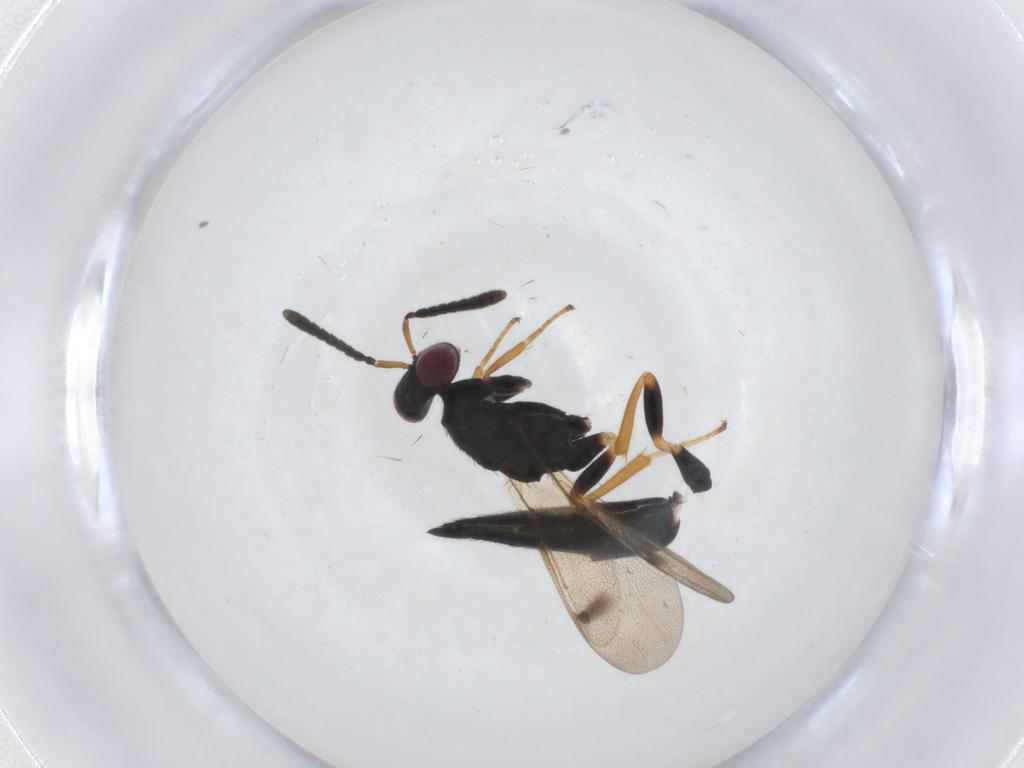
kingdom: Animalia
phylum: Arthropoda
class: Insecta
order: Hymenoptera
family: Pteromalidae
